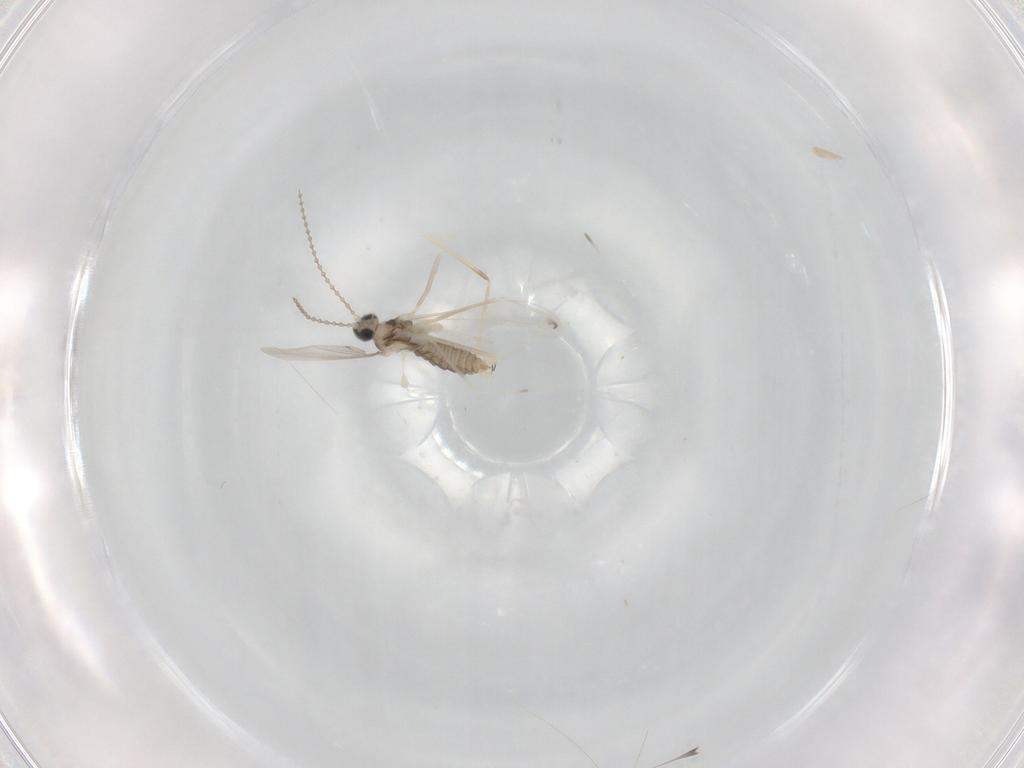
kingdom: Animalia
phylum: Arthropoda
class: Insecta
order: Diptera
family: Cecidomyiidae
